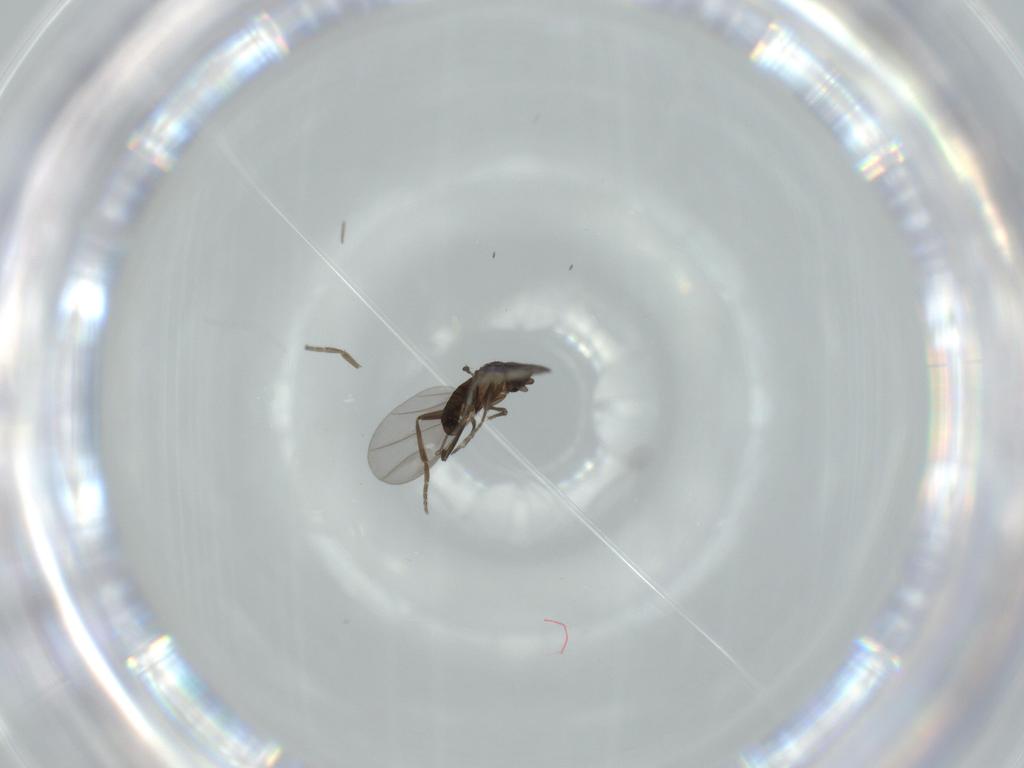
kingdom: Animalia
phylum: Arthropoda
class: Insecta
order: Diptera
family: Phoridae
